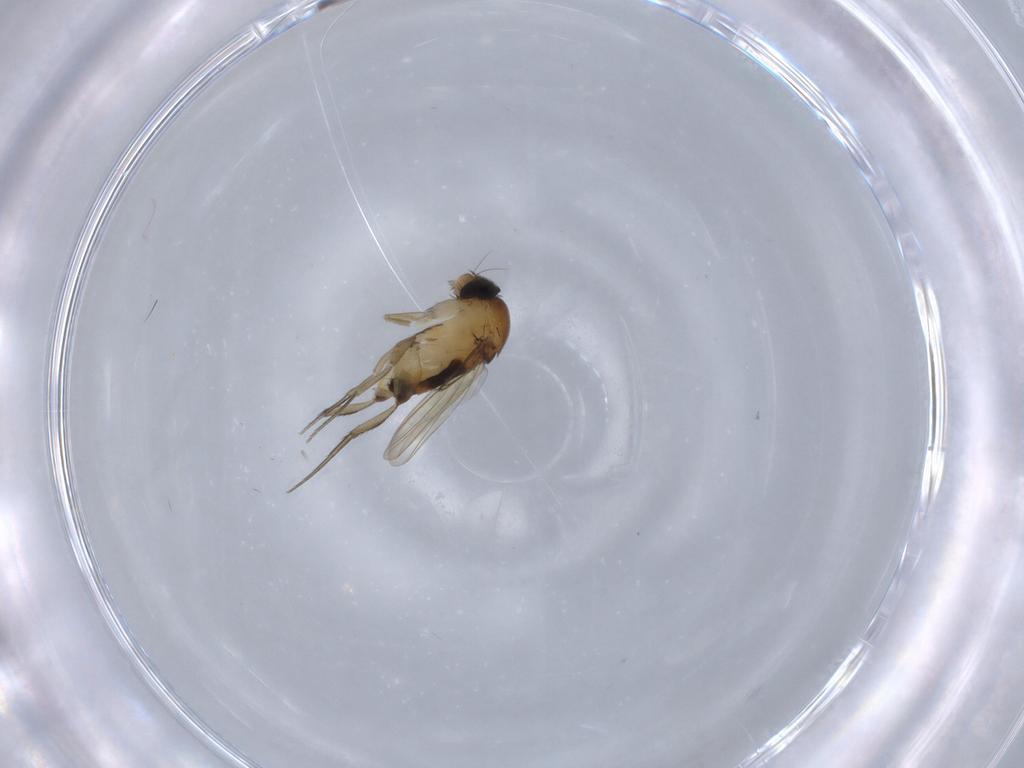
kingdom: Animalia
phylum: Arthropoda
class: Insecta
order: Diptera
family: Phoridae
